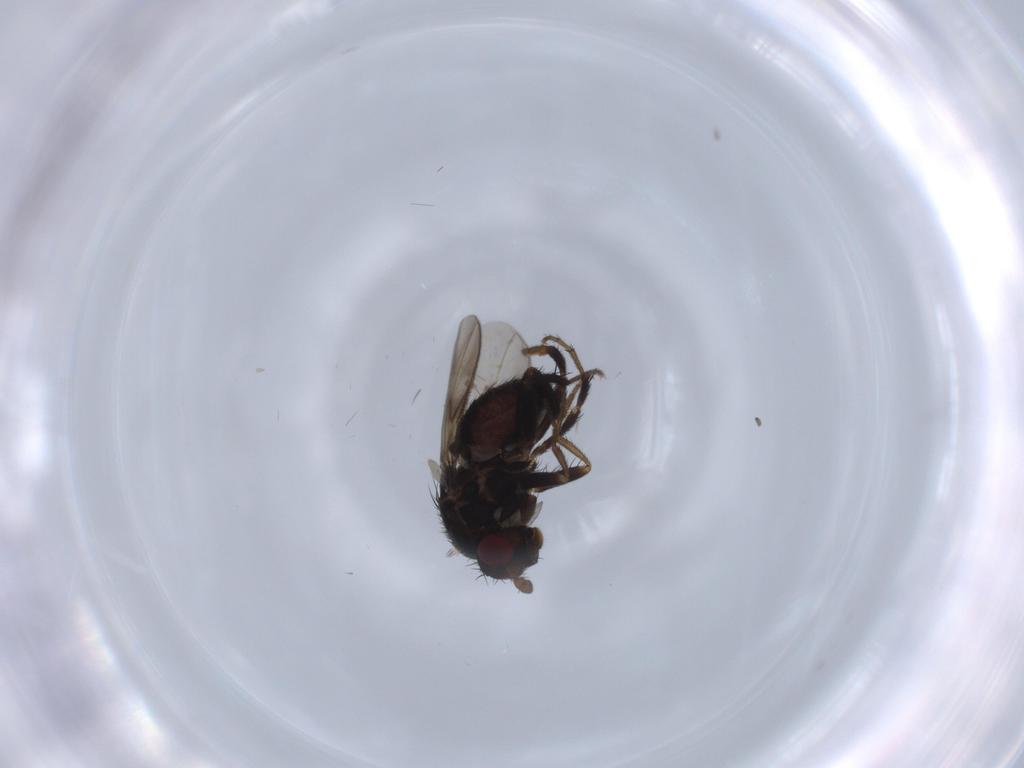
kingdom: Animalia
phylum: Arthropoda
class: Insecta
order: Diptera
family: Sphaeroceridae
